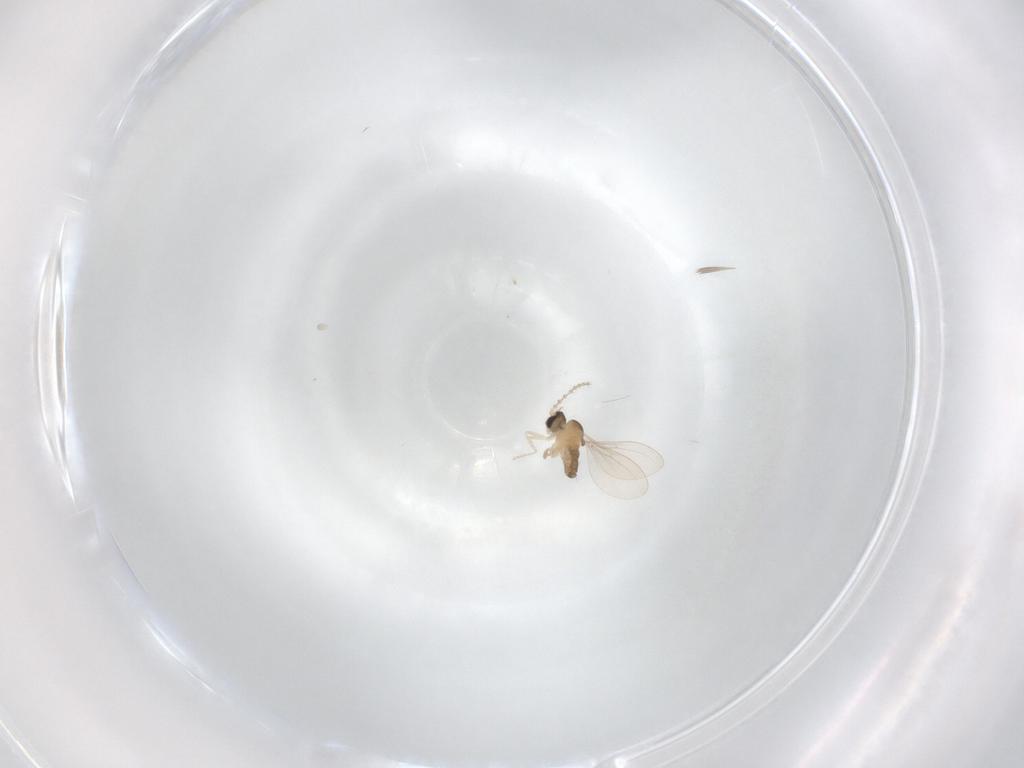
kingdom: Animalia
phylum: Arthropoda
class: Insecta
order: Diptera
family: Cecidomyiidae
